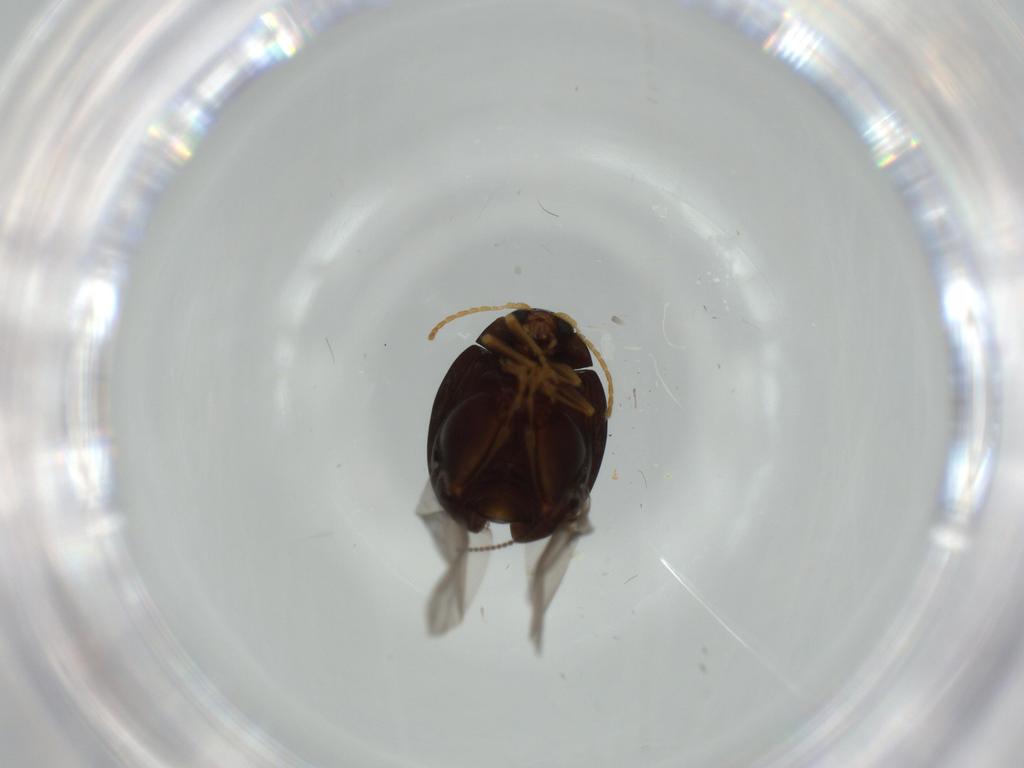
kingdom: Animalia
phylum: Arthropoda
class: Insecta
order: Coleoptera
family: Chrysomelidae
